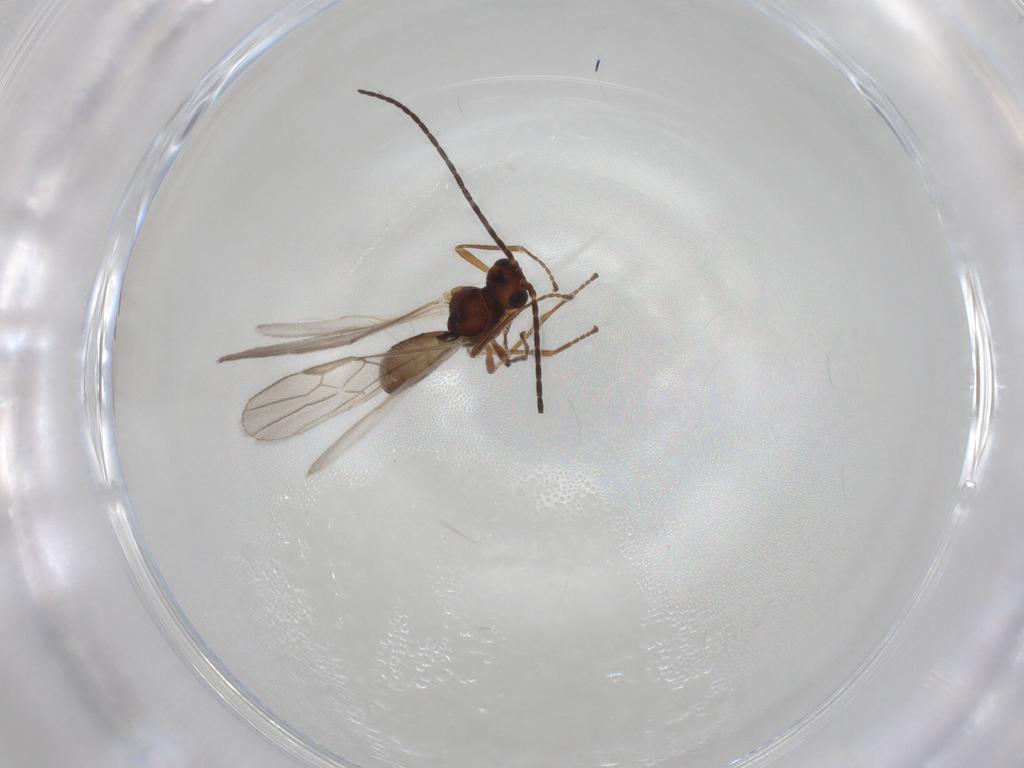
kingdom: Animalia
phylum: Arthropoda
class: Insecta
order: Hymenoptera
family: Braconidae
